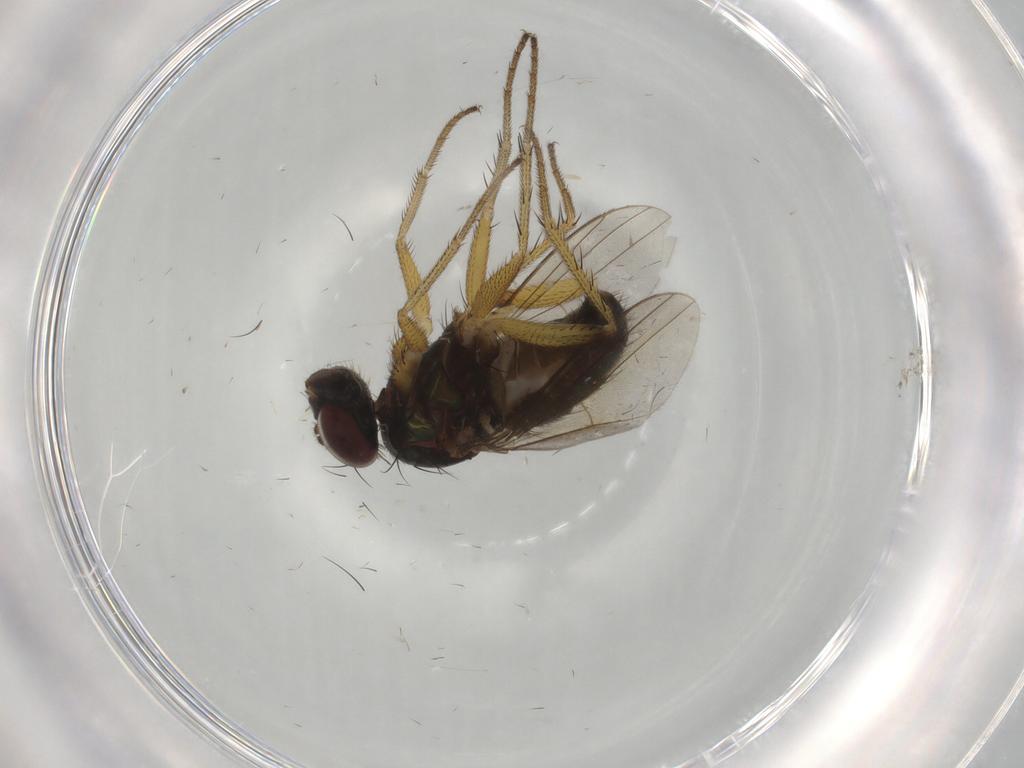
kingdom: Animalia
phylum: Arthropoda
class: Insecta
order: Diptera
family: Dolichopodidae
